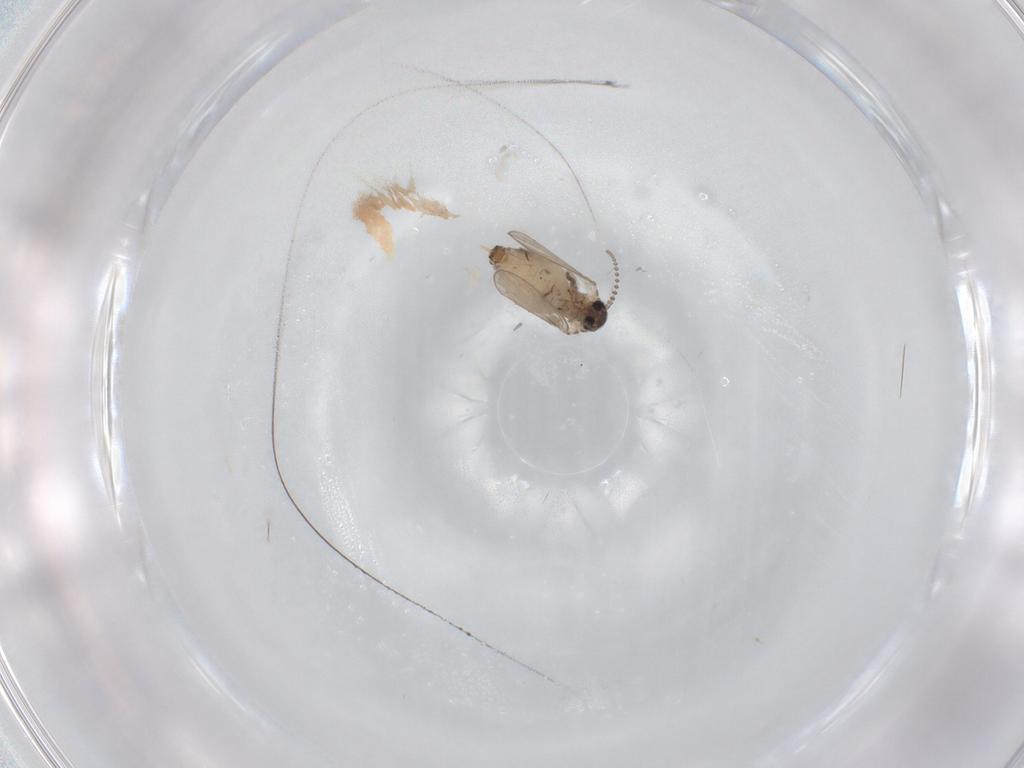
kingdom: Animalia
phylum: Arthropoda
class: Insecta
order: Diptera
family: Psychodidae
